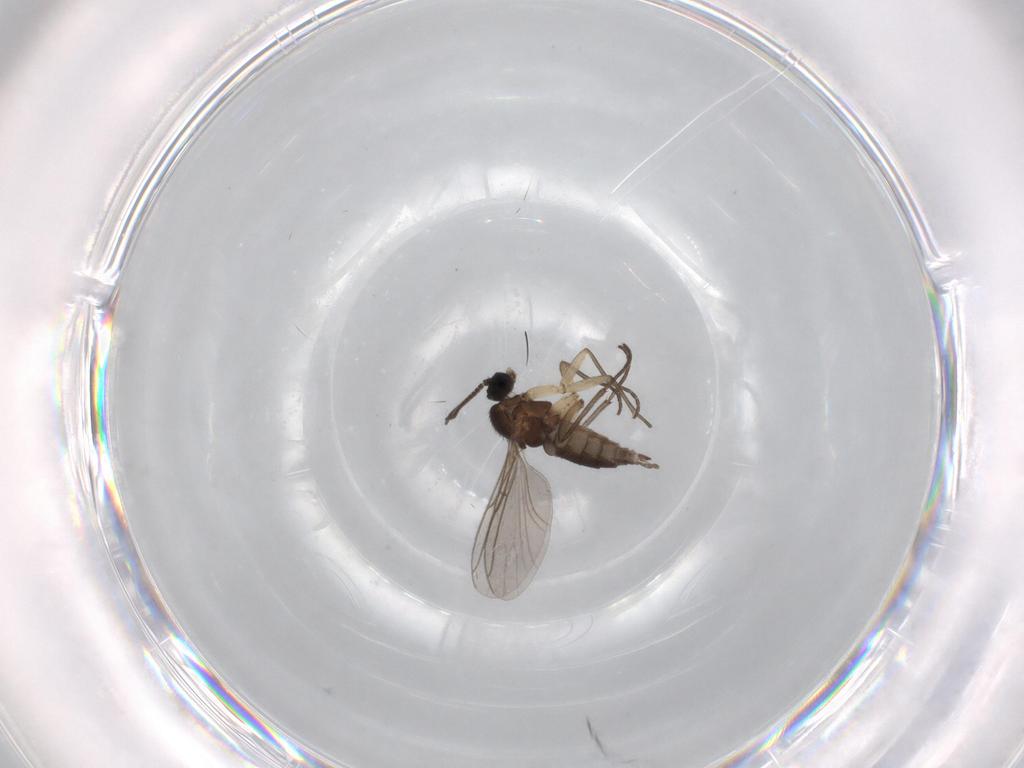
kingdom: Animalia
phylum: Arthropoda
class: Insecta
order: Diptera
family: Sciaridae
